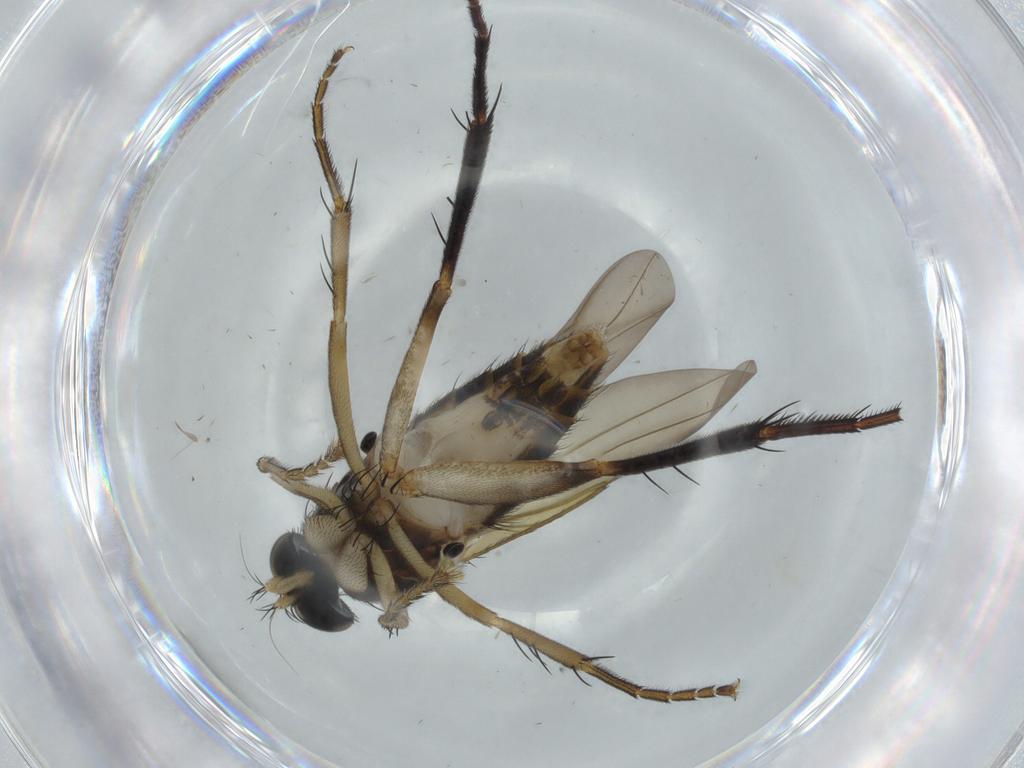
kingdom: Animalia
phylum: Arthropoda
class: Insecta
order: Diptera
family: Phoridae
